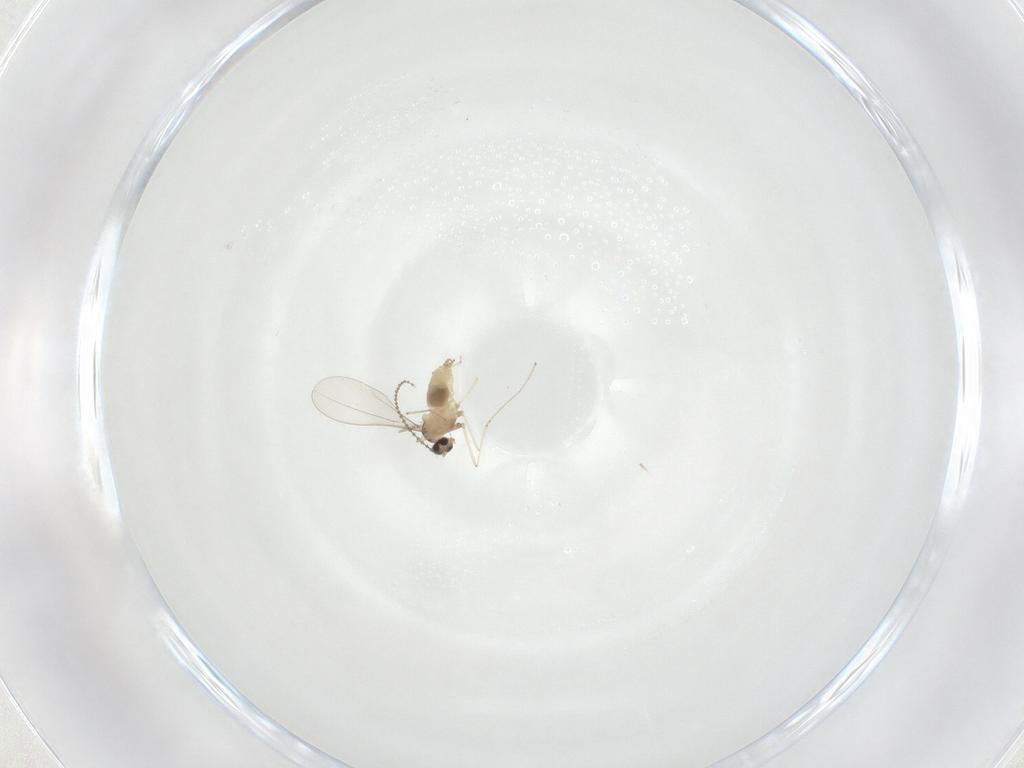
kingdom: Animalia
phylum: Arthropoda
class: Insecta
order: Diptera
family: Cecidomyiidae
